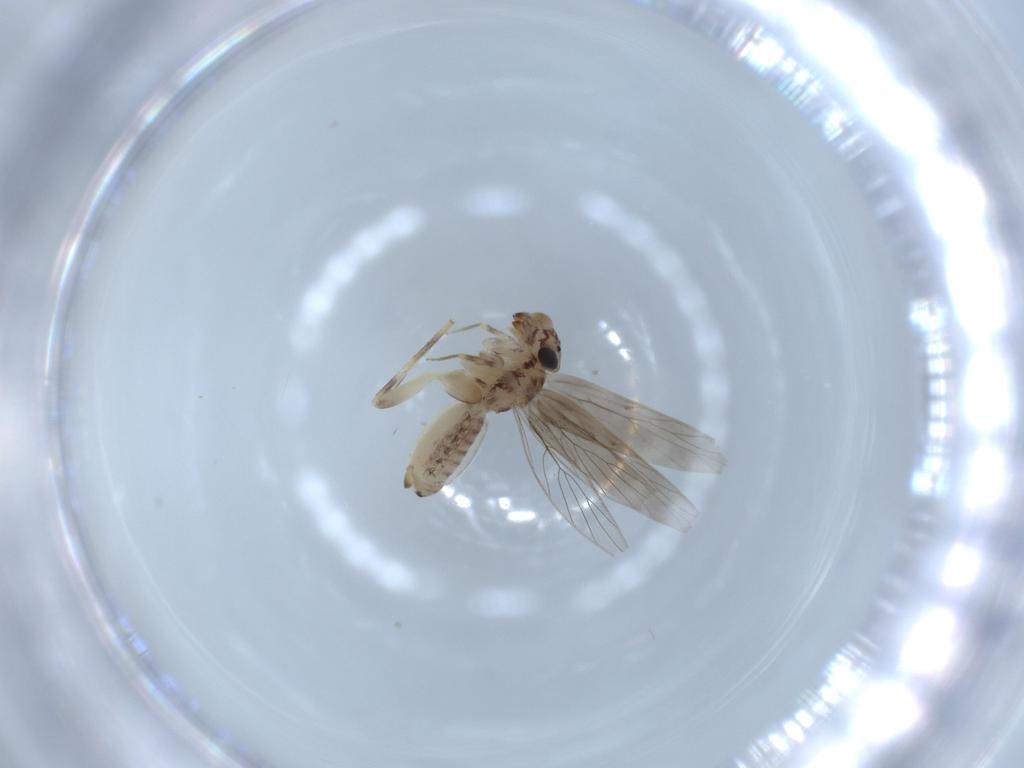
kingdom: Animalia
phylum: Arthropoda
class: Insecta
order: Psocodea
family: Lepidopsocidae
